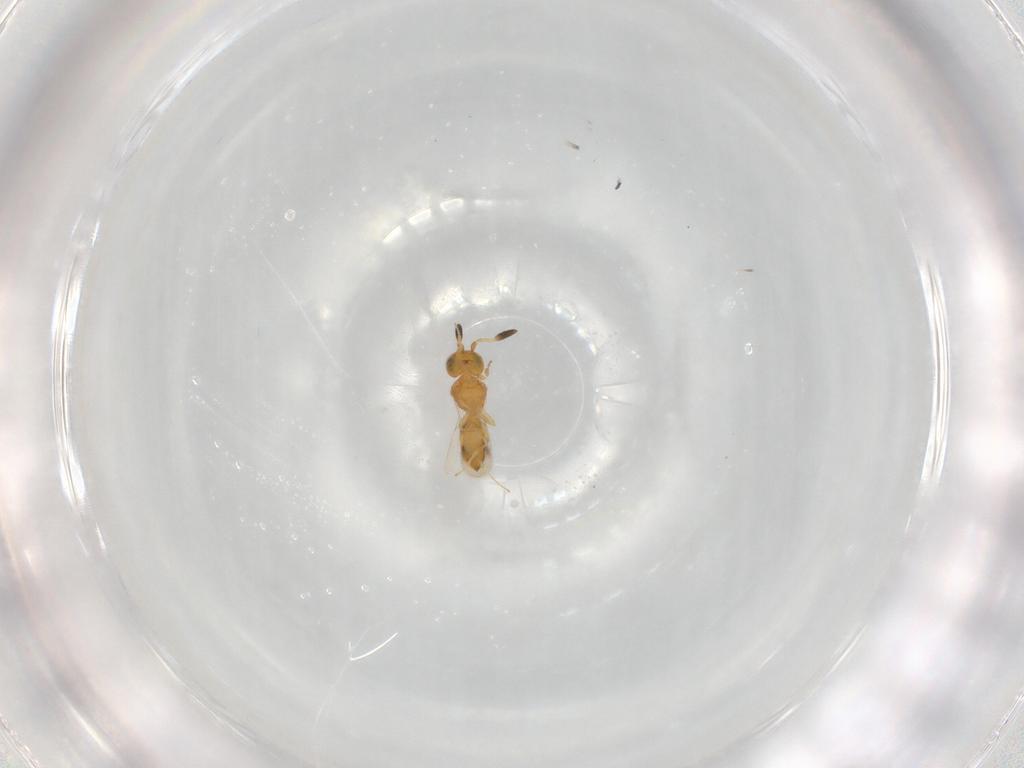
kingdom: Animalia
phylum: Arthropoda
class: Insecta
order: Hymenoptera
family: Scelionidae
